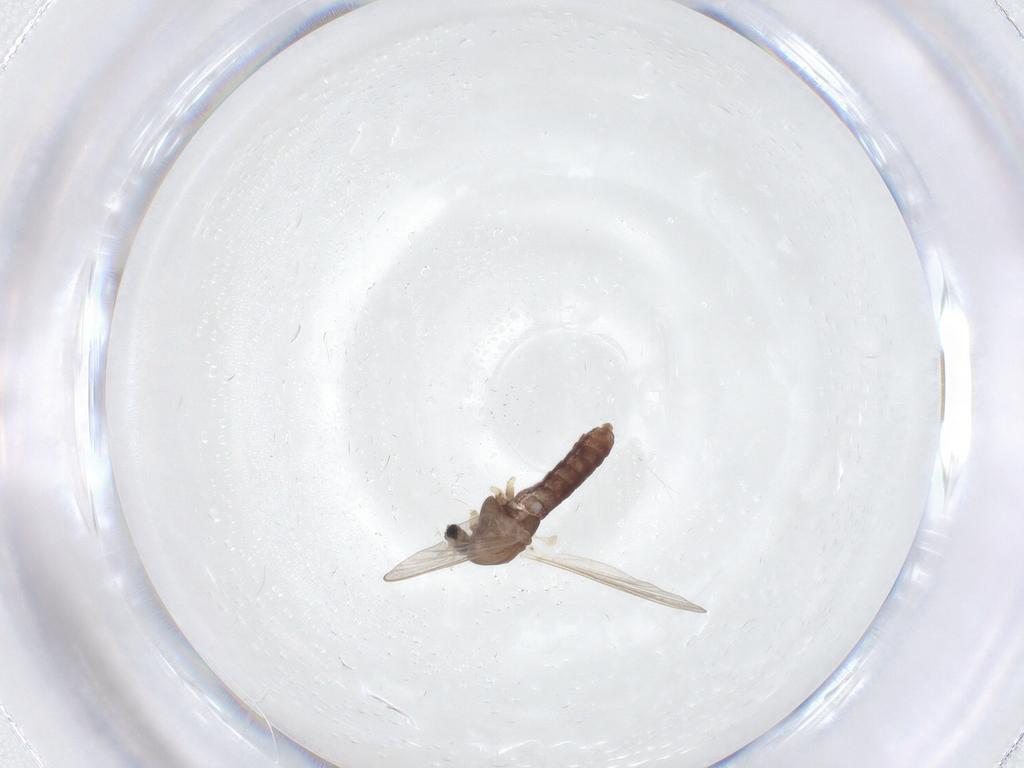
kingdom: Animalia
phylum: Arthropoda
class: Insecta
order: Diptera
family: Chironomidae
